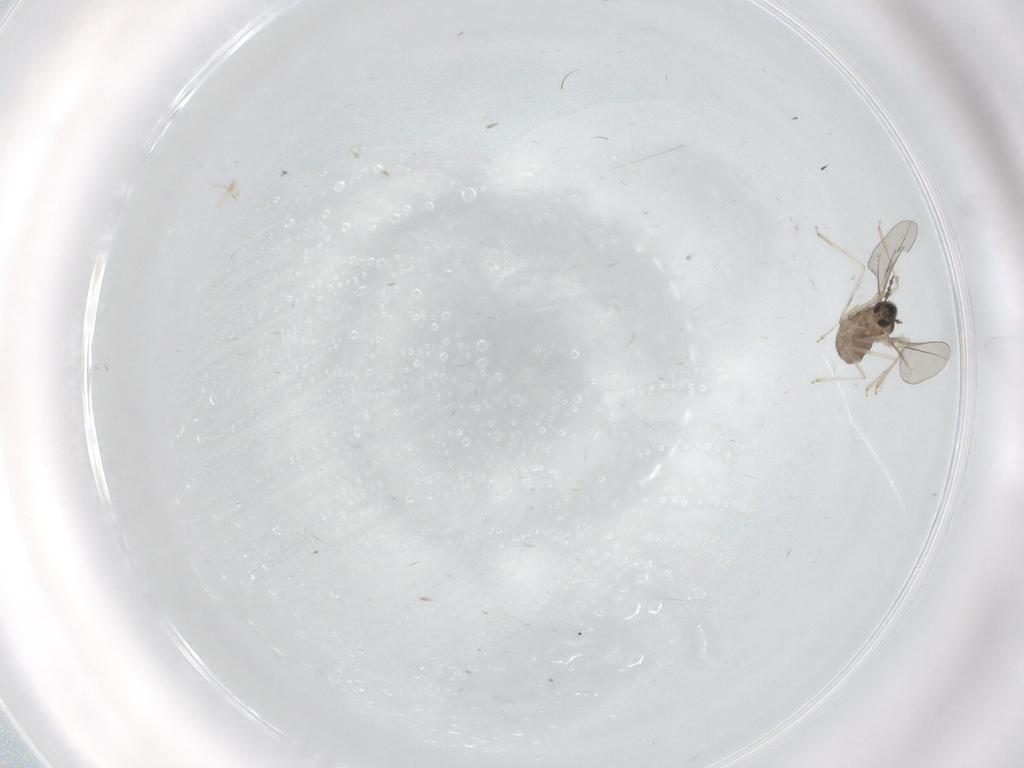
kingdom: Animalia
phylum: Arthropoda
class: Insecta
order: Diptera
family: Cecidomyiidae
